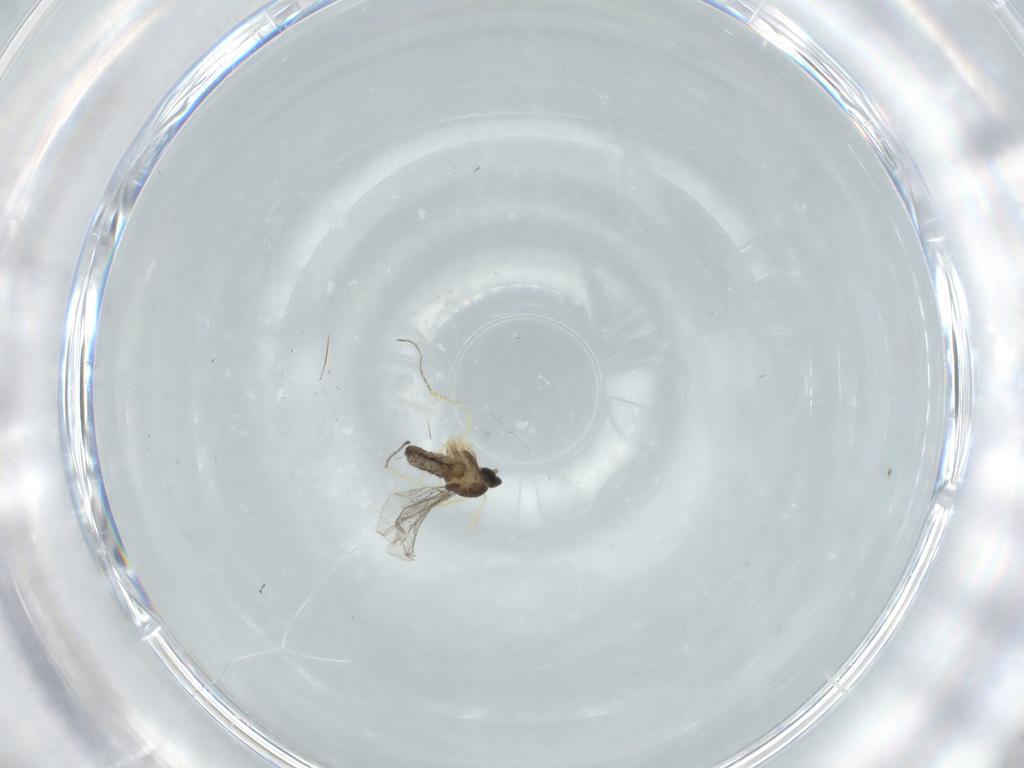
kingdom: Animalia
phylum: Arthropoda
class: Insecta
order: Diptera
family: Cecidomyiidae
